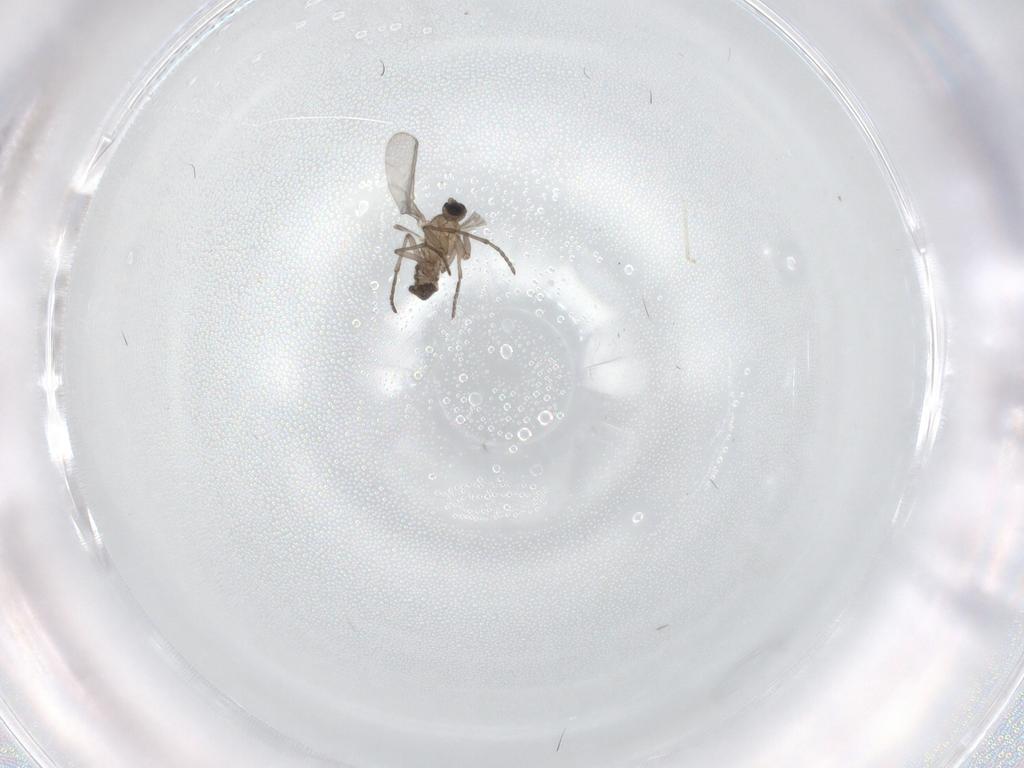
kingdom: Animalia
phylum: Arthropoda
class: Insecta
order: Diptera
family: Sciaridae
